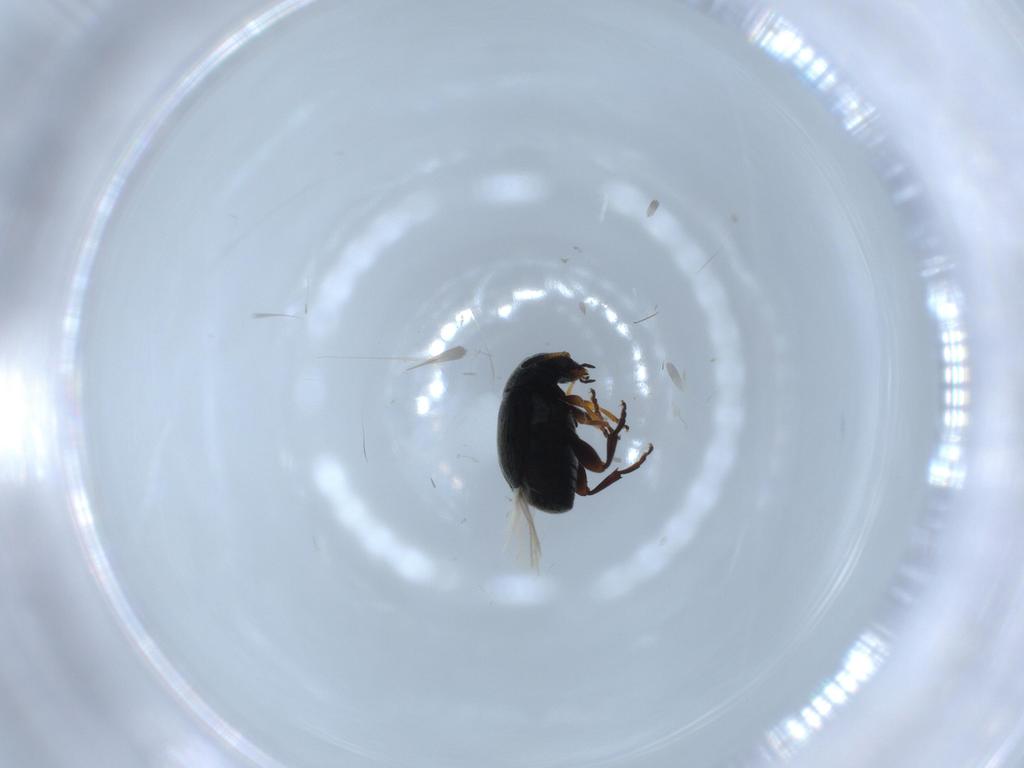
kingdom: Animalia
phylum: Arthropoda
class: Insecta
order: Coleoptera
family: Chrysomelidae
